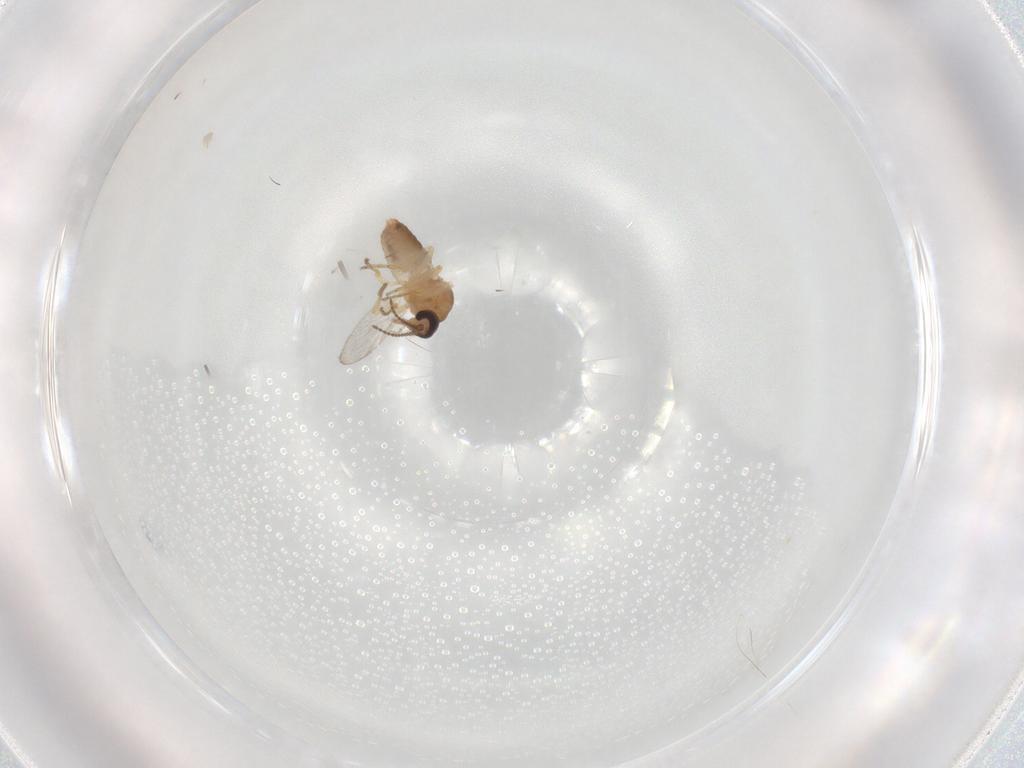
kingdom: Animalia
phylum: Arthropoda
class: Insecta
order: Diptera
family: Ceratopogonidae
